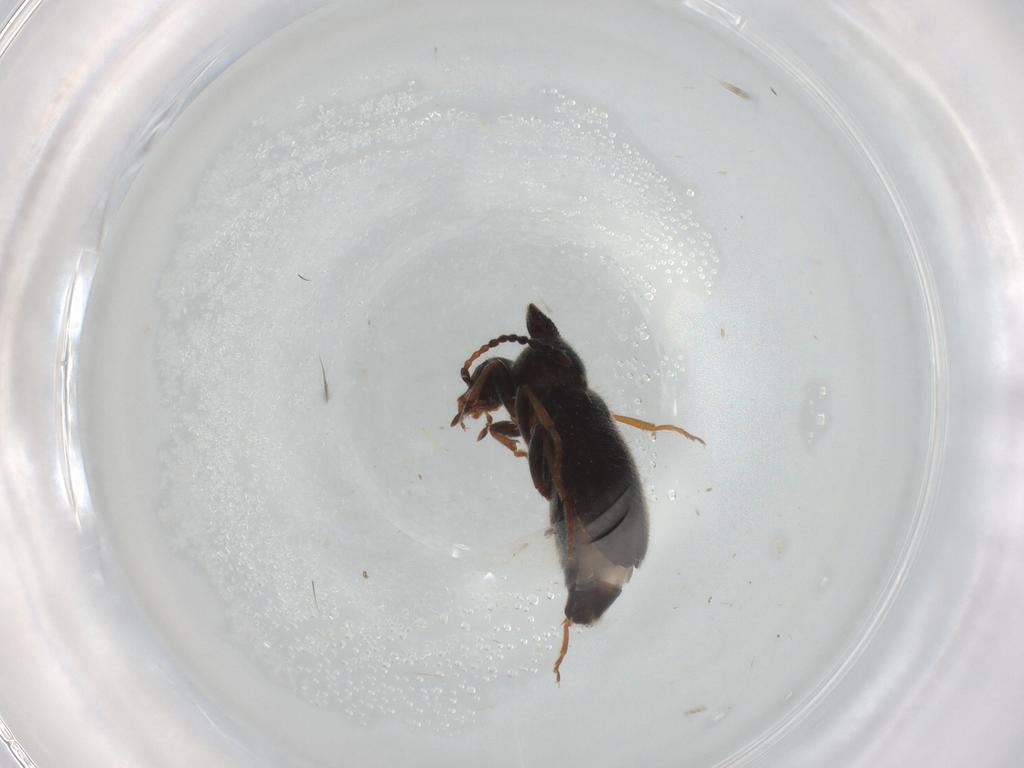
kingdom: Animalia
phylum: Arthropoda
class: Insecta
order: Coleoptera
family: Anthicidae
